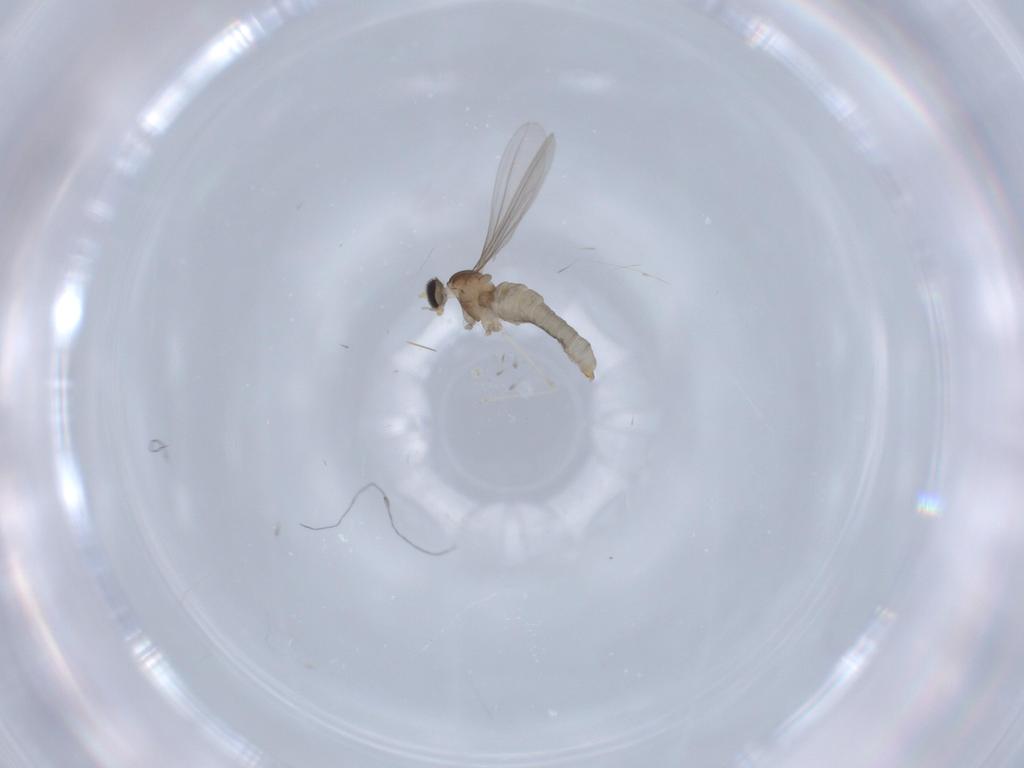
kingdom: Animalia
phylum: Arthropoda
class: Insecta
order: Diptera
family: Cecidomyiidae
